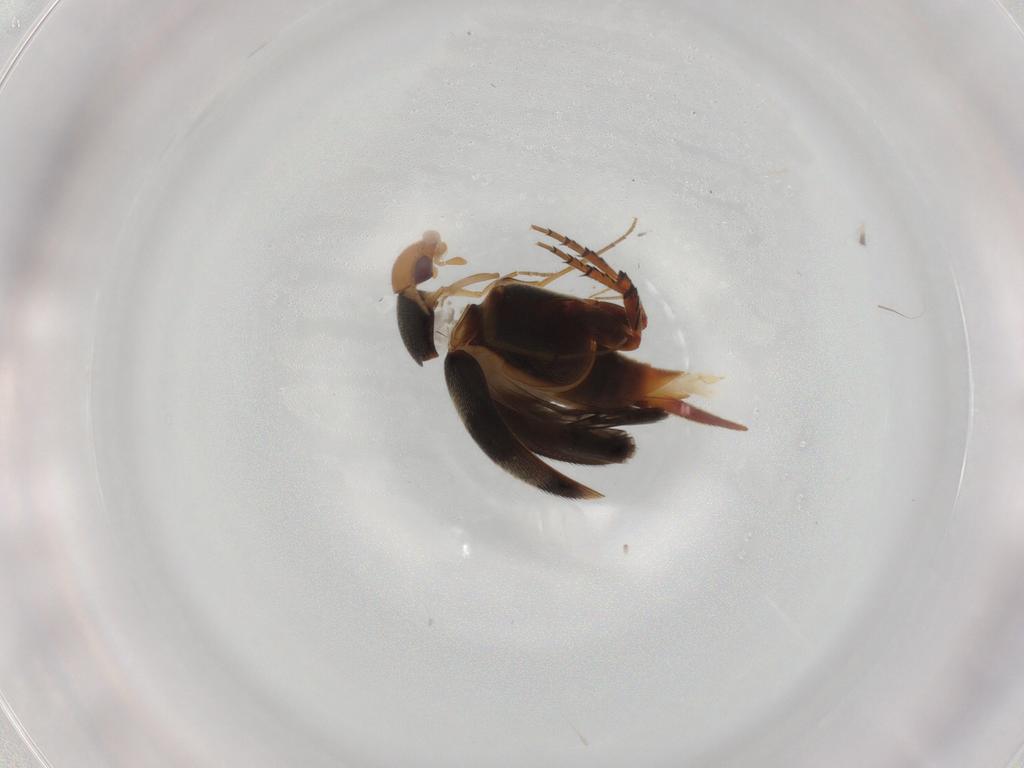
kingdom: Animalia
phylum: Arthropoda
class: Insecta
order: Coleoptera
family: Mordellidae
